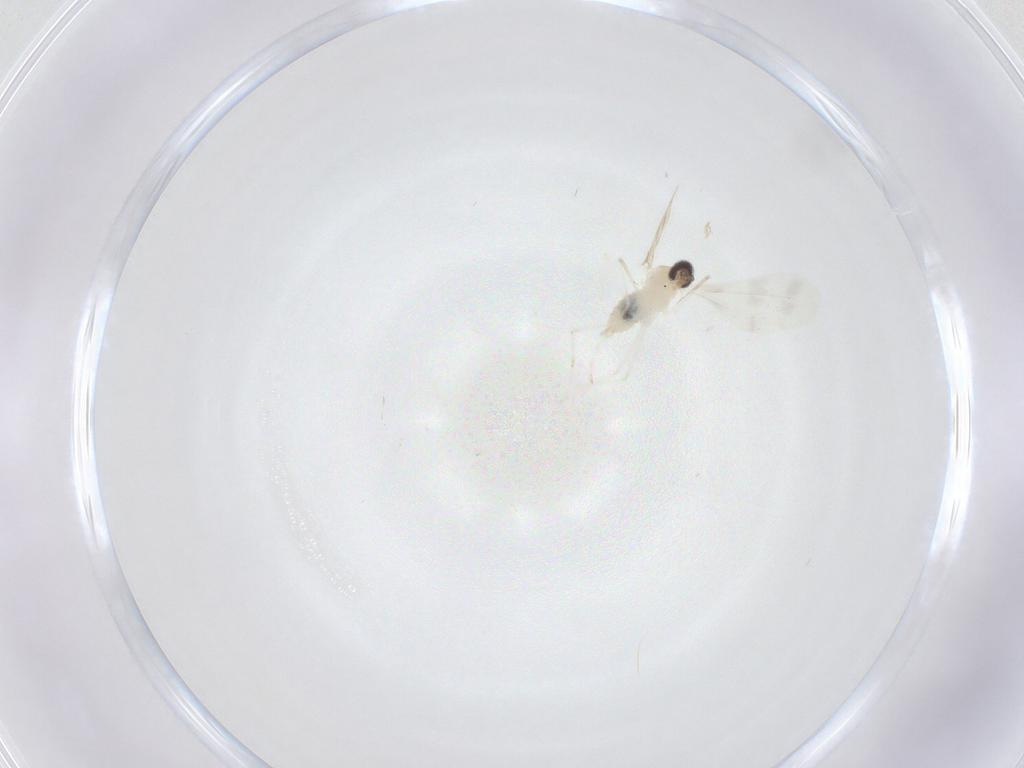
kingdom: Animalia
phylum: Arthropoda
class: Insecta
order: Diptera
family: Cecidomyiidae
